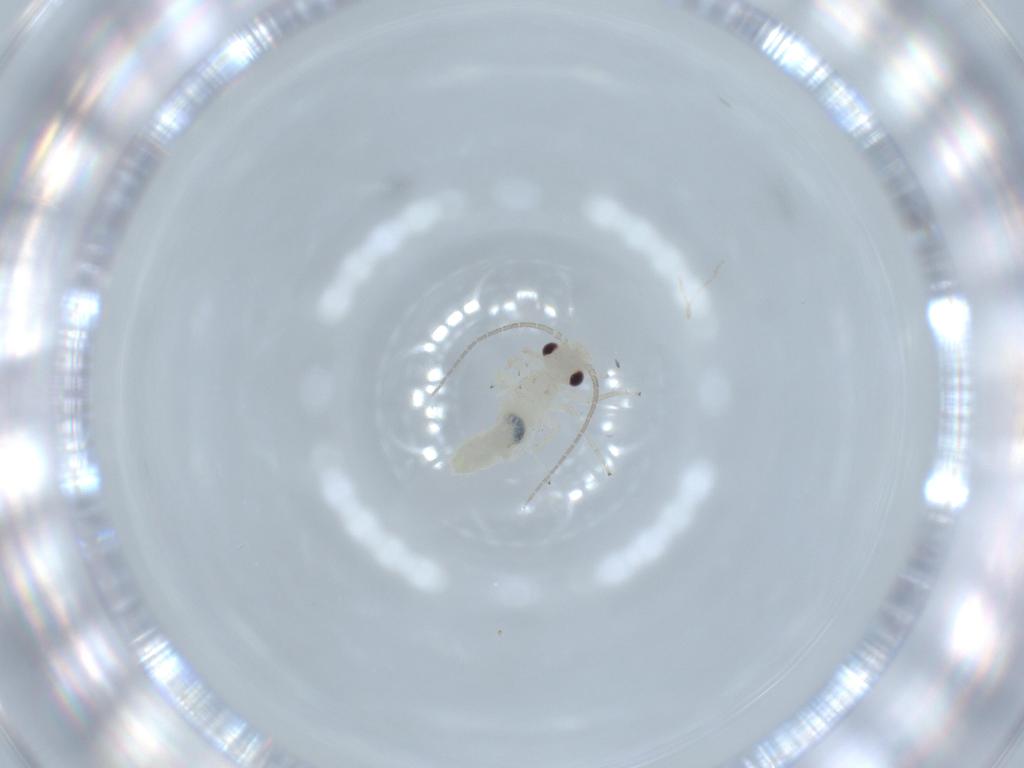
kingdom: Animalia
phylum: Arthropoda
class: Insecta
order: Psocodea
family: Caeciliusidae
